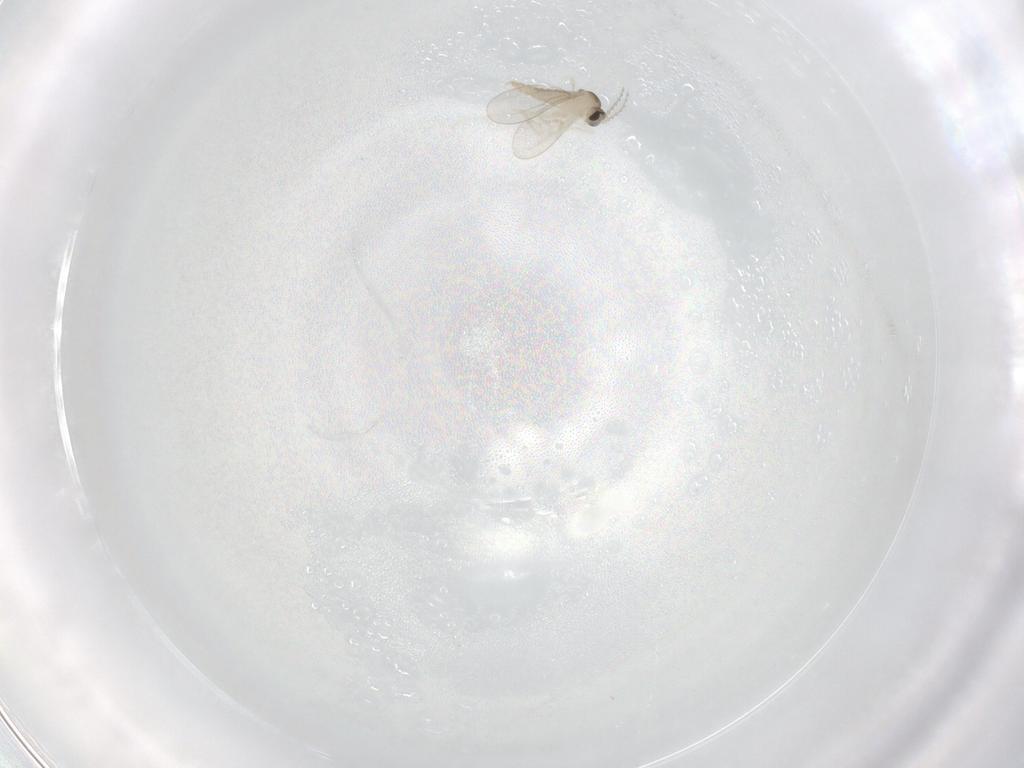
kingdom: Animalia
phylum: Arthropoda
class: Insecta
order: Diptera
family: Cecidomyiidae
